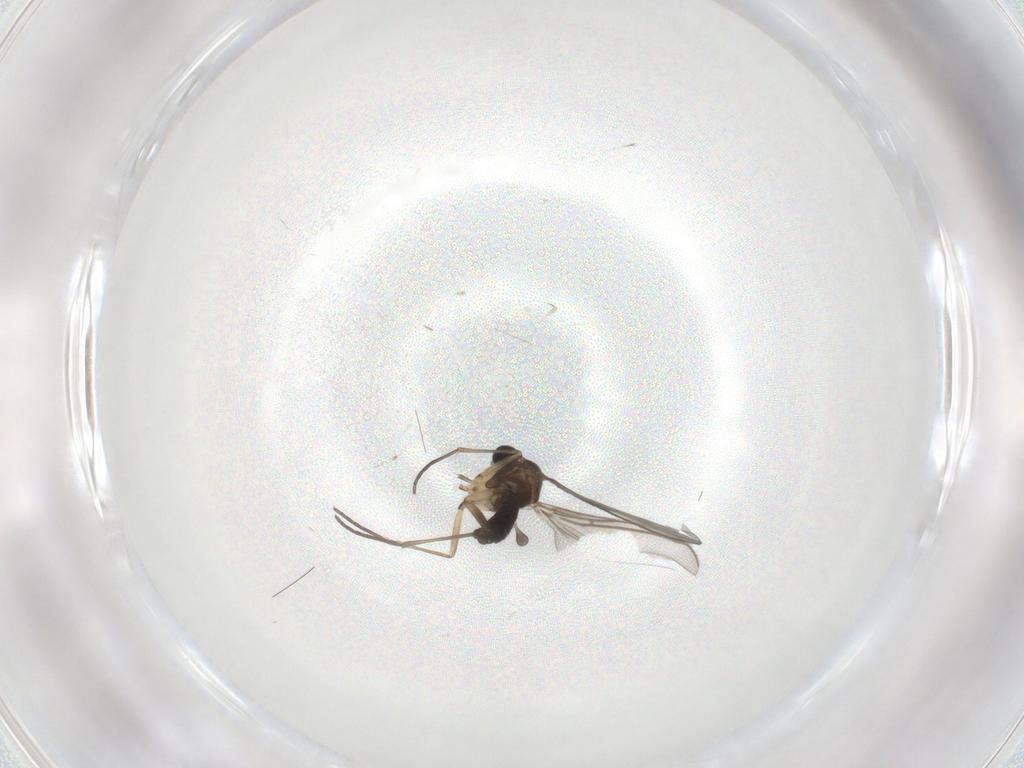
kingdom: Animalia
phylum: Arthropoda
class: Insecta
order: Diptera
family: Sciaridae
